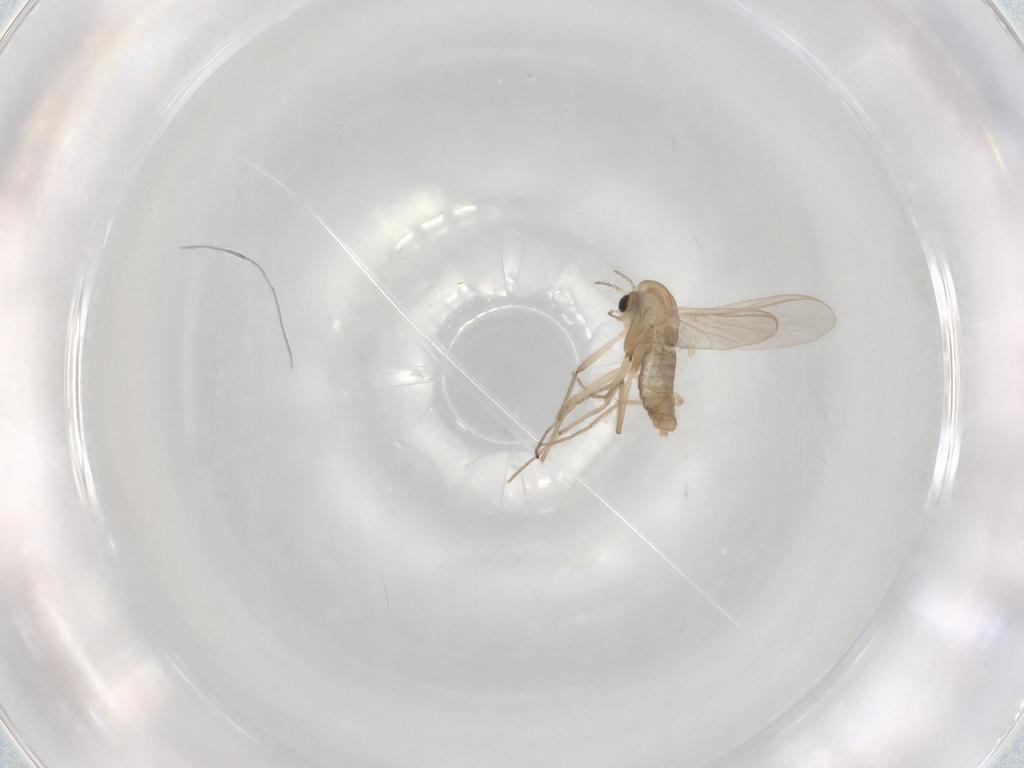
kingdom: Animalia
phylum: Arthropoda
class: Insecta
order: Diptera
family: Chironomidae
